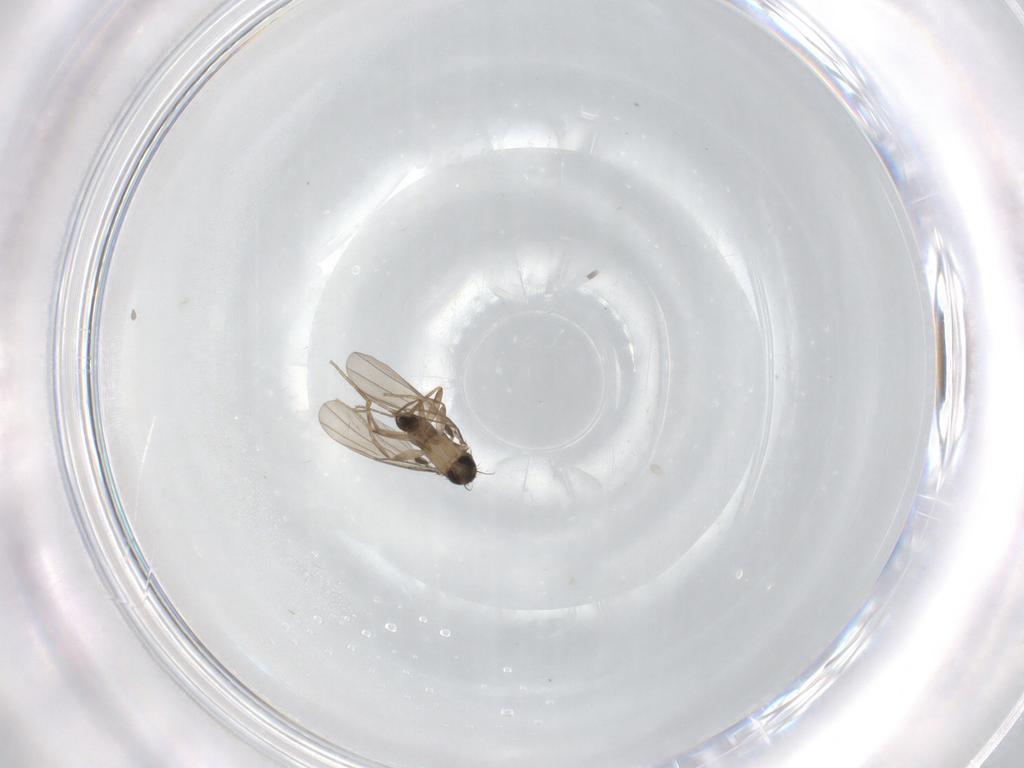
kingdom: Animalia
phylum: Arthropoda
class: Insecta
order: Diptera
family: Phoridae
